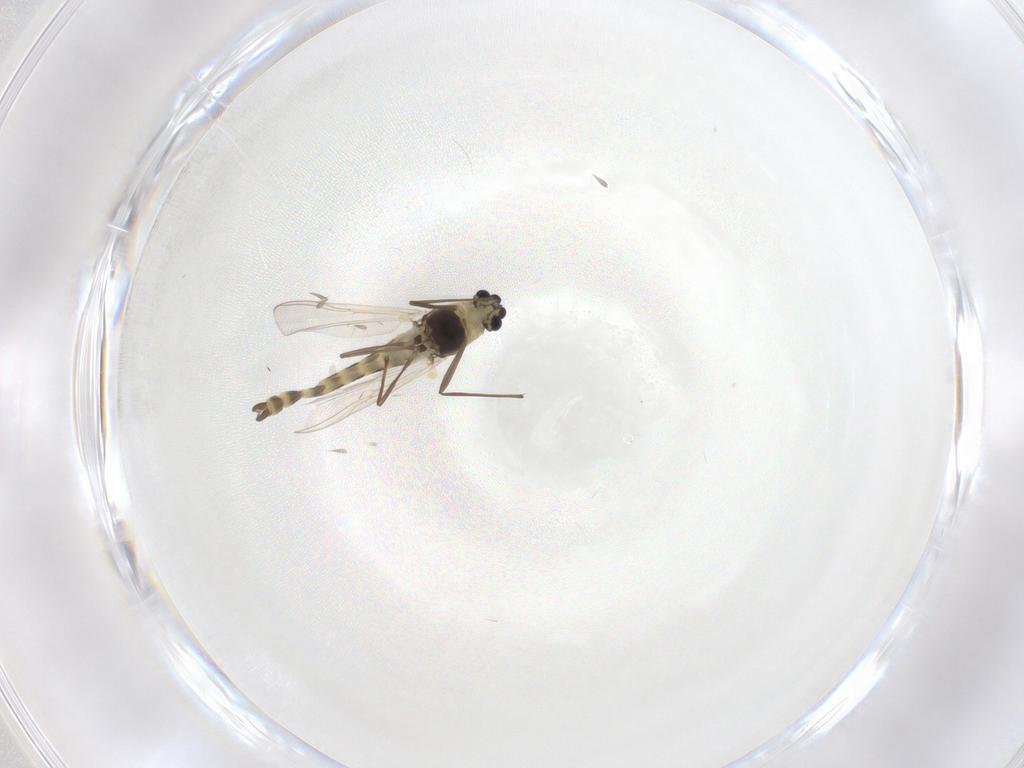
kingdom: Animalia
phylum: Arthropoda
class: Insecta
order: Diptera
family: Chironomidae
